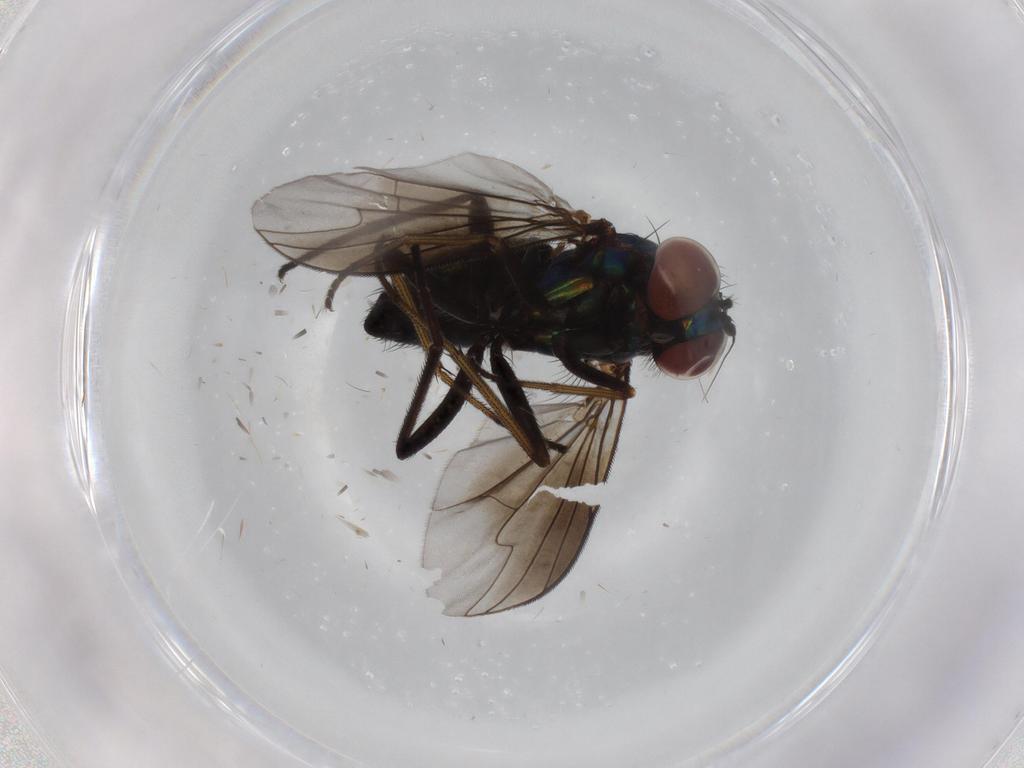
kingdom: Animalia
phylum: Arthropoda
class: Insecta
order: Diptera
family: Dolichopodidae
